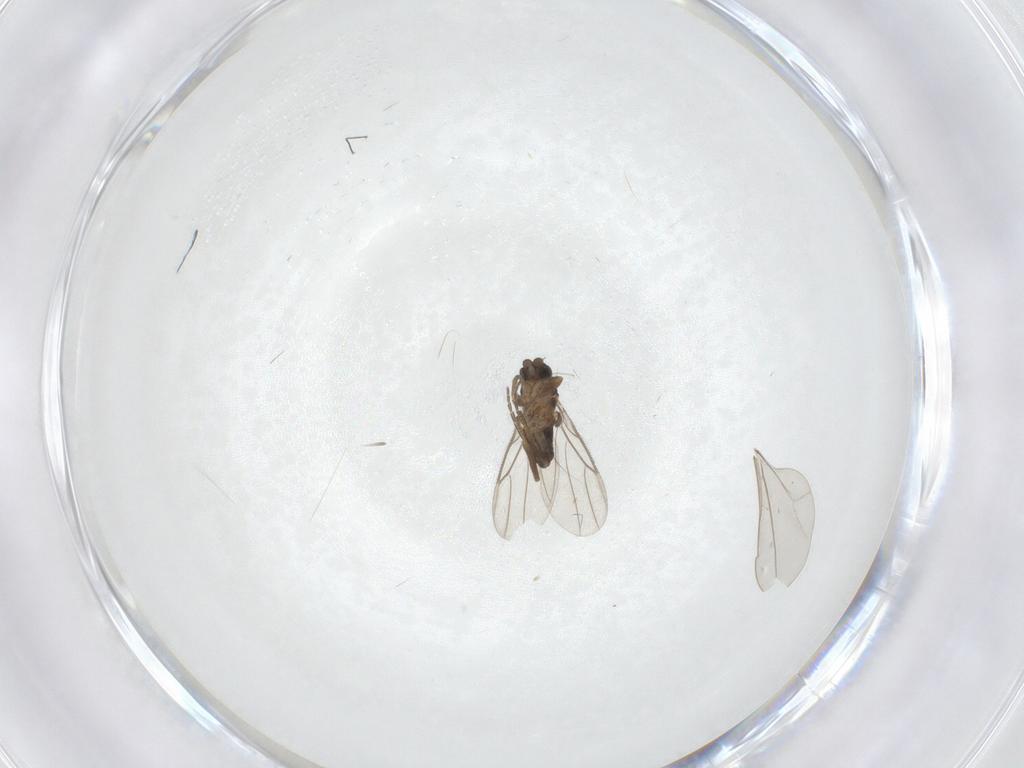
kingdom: Animalia
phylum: Arthropoda
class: Insecta
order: Diptera
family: Phoridae
